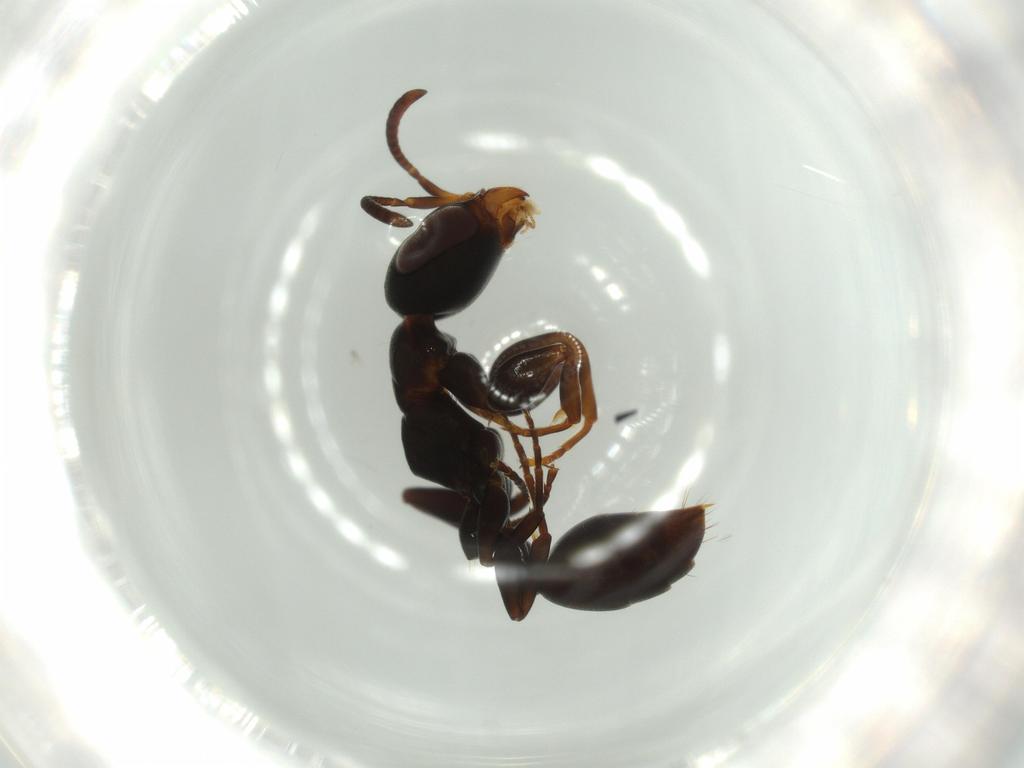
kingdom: Animalia
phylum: Arthropoda
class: Insecta
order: Hymenoptera
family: Formicidae
